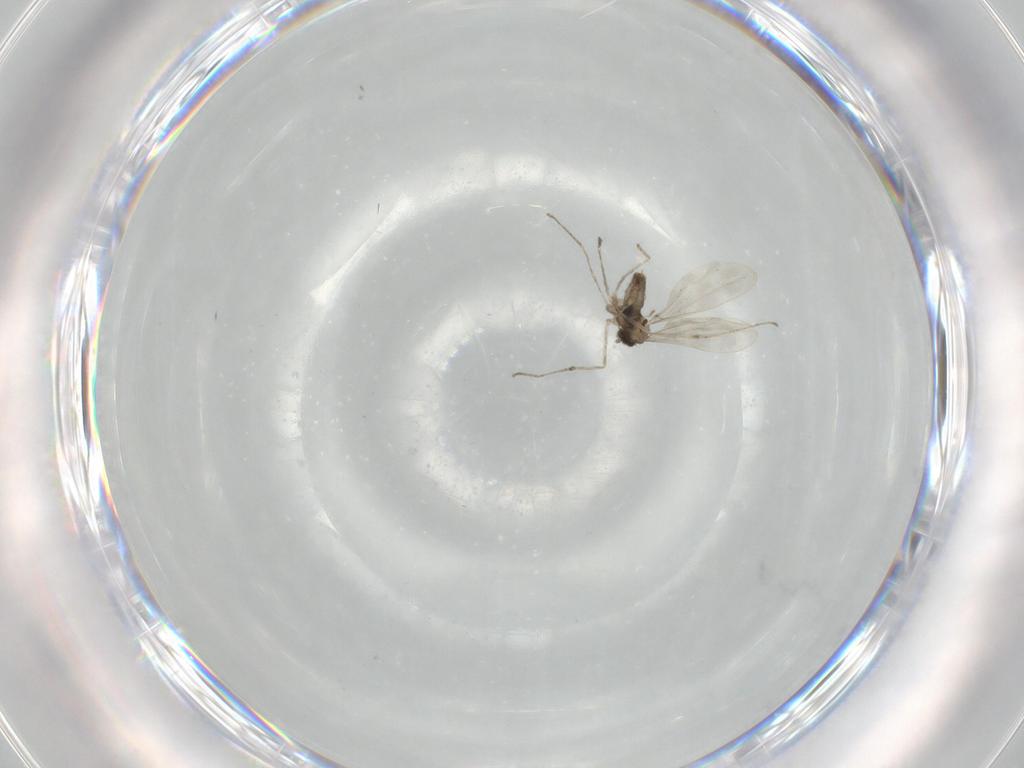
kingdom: Animalia
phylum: Arthropoda
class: Insecta
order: Diptera
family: Cecidomyiidae
